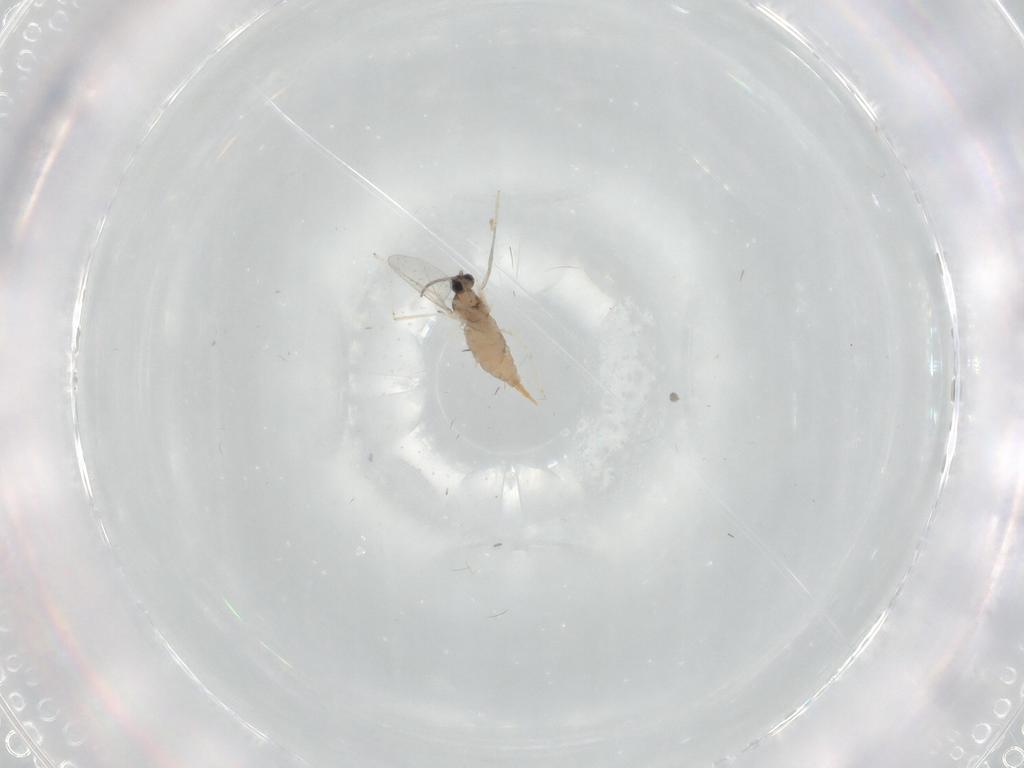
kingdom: Animalia
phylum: Arthropoda
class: Insecta
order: Diptera
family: Cecidomyiidae
